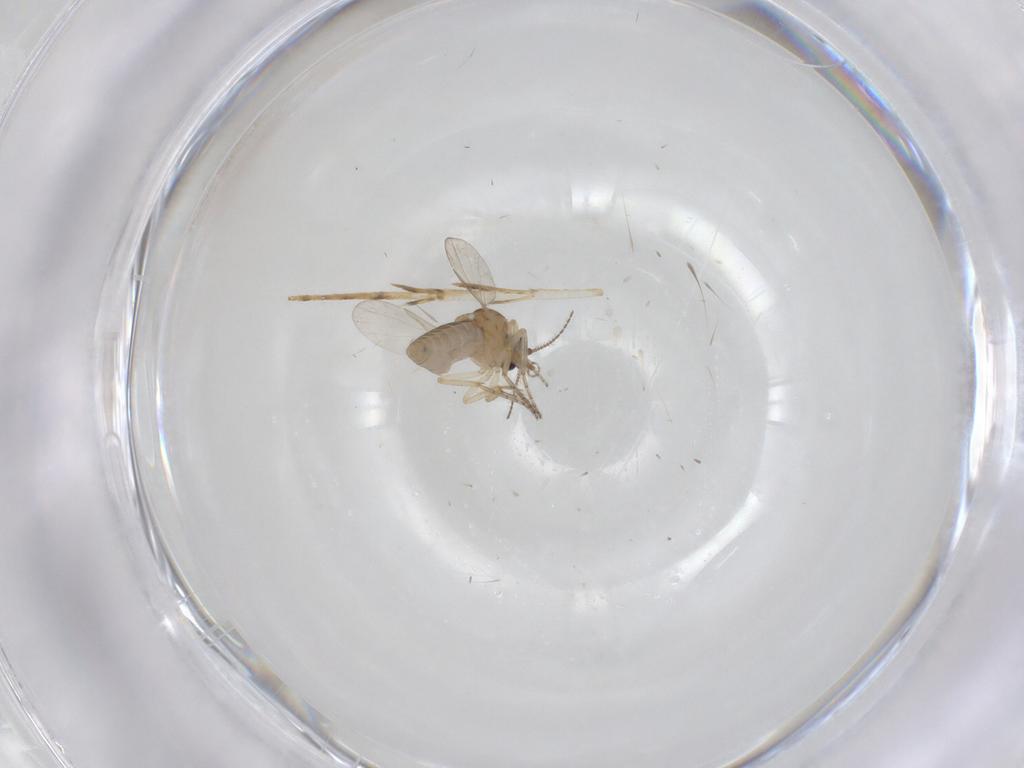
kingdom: Animalia
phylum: Arthropoda
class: Insecta
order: Diptera
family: Ceratopogonidae
